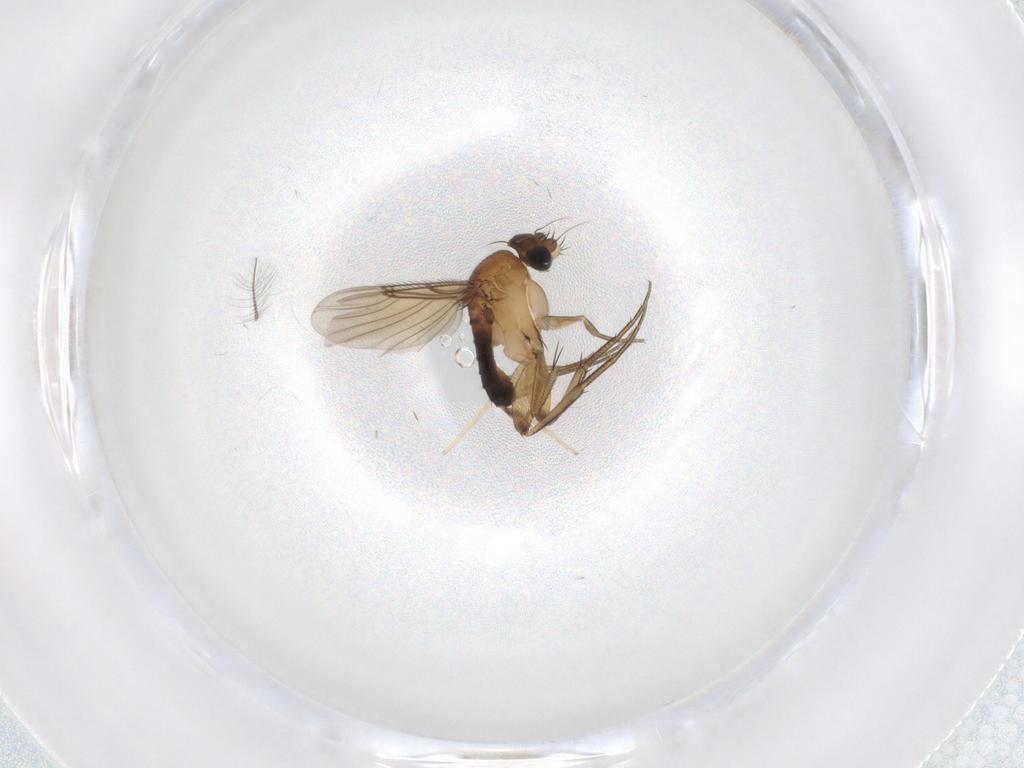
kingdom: Animalia
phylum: Arthropoda
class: Insecta
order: Diptera
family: Phoridae
